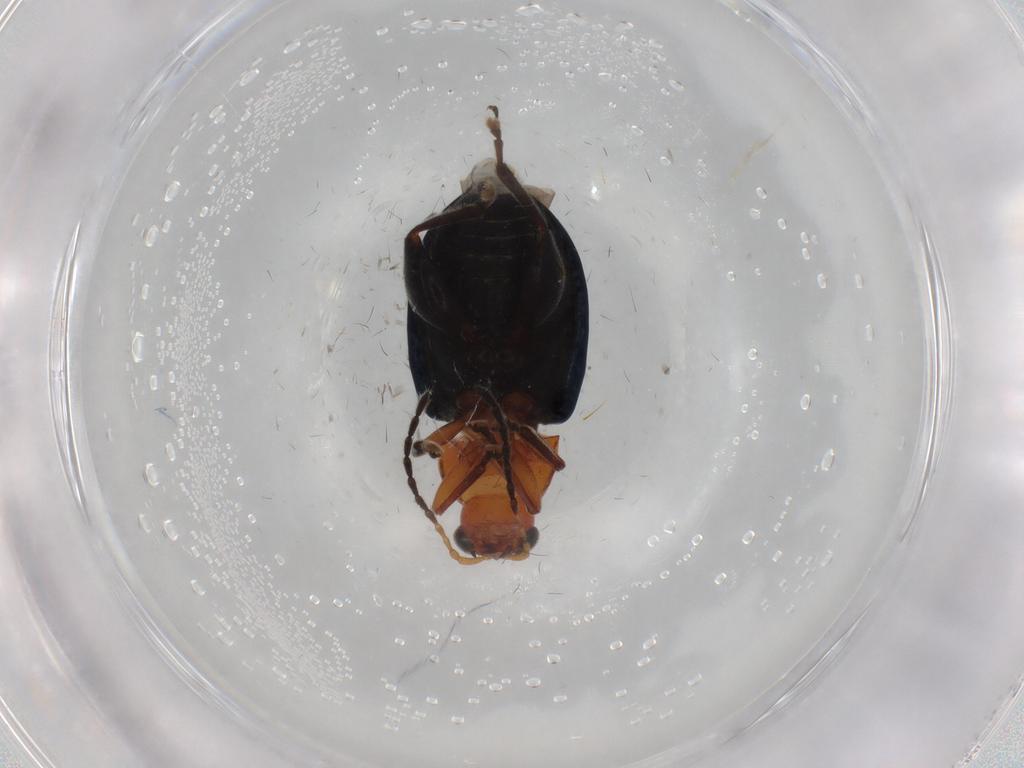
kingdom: Animalia
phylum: Arthropoda
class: Insecta
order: Coleoptera
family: Chrysomelidae
